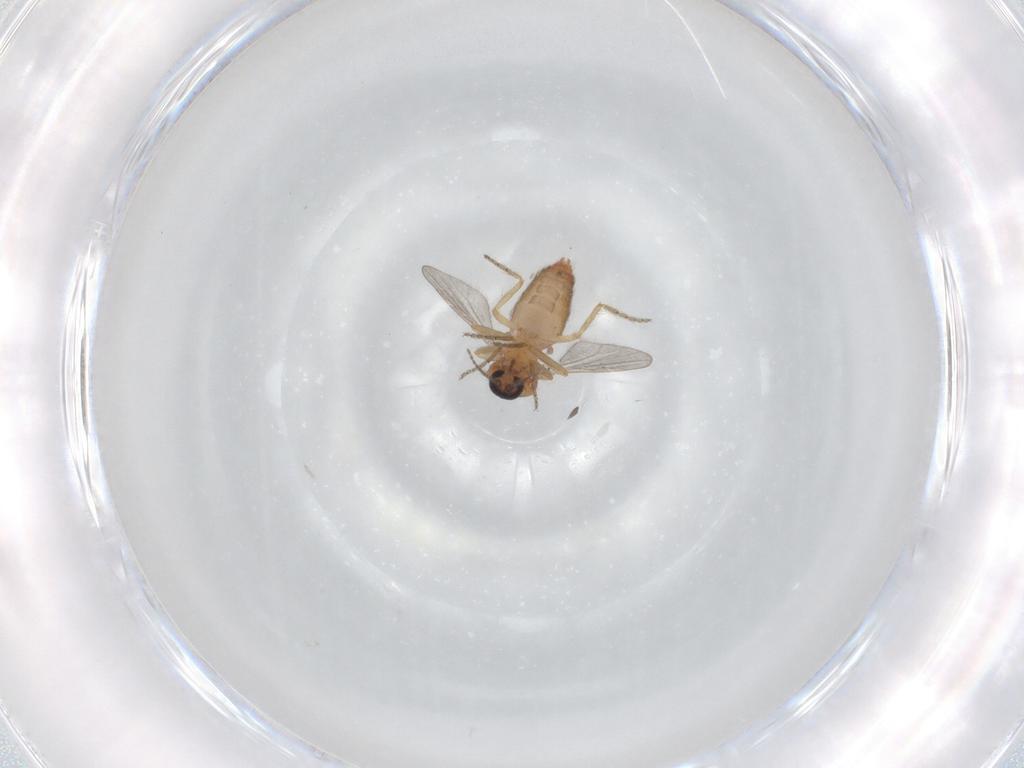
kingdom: Animalia
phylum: Arthropoda
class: Insecta
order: Diptera
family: Ceratopogonidae
